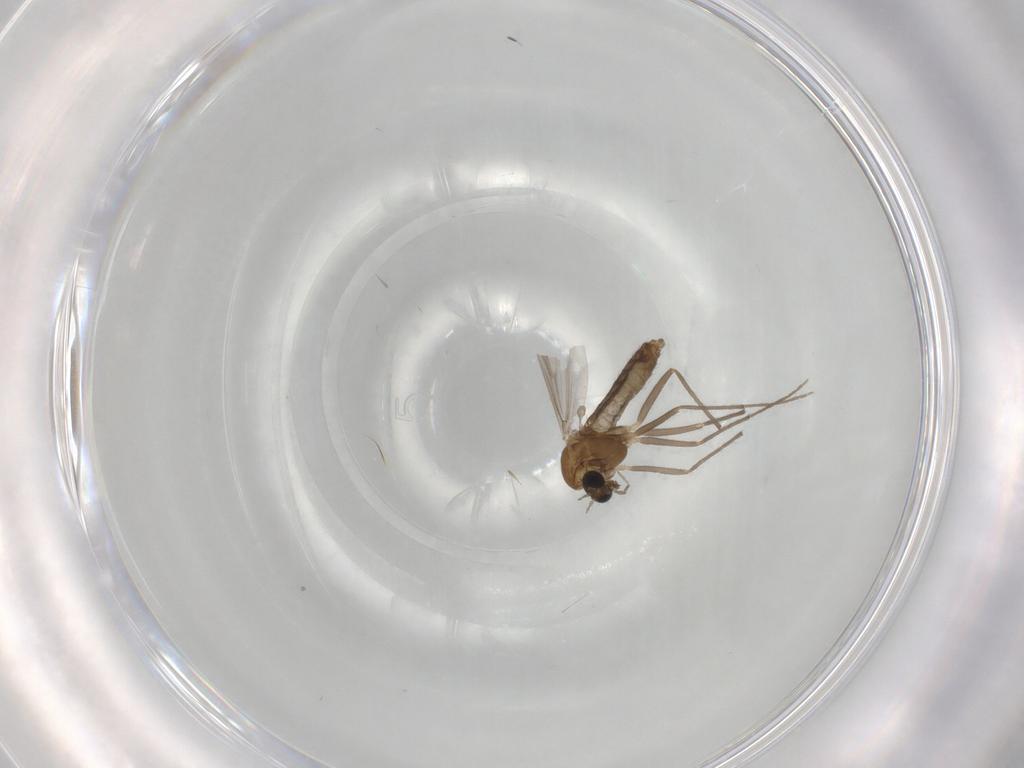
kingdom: Animalia
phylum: Arthropoda
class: Insecta
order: Diptera
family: Chironomidae
